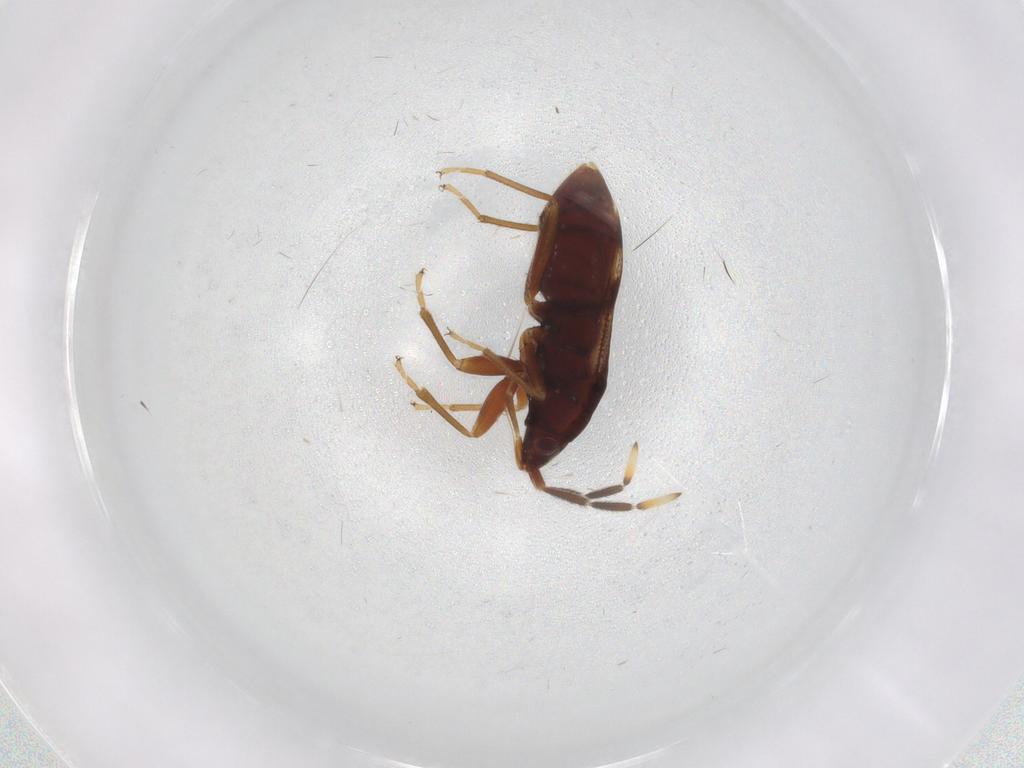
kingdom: Animalia
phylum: Arthropoda
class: Insecta
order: Hemiptera
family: Rhyparochromidae
